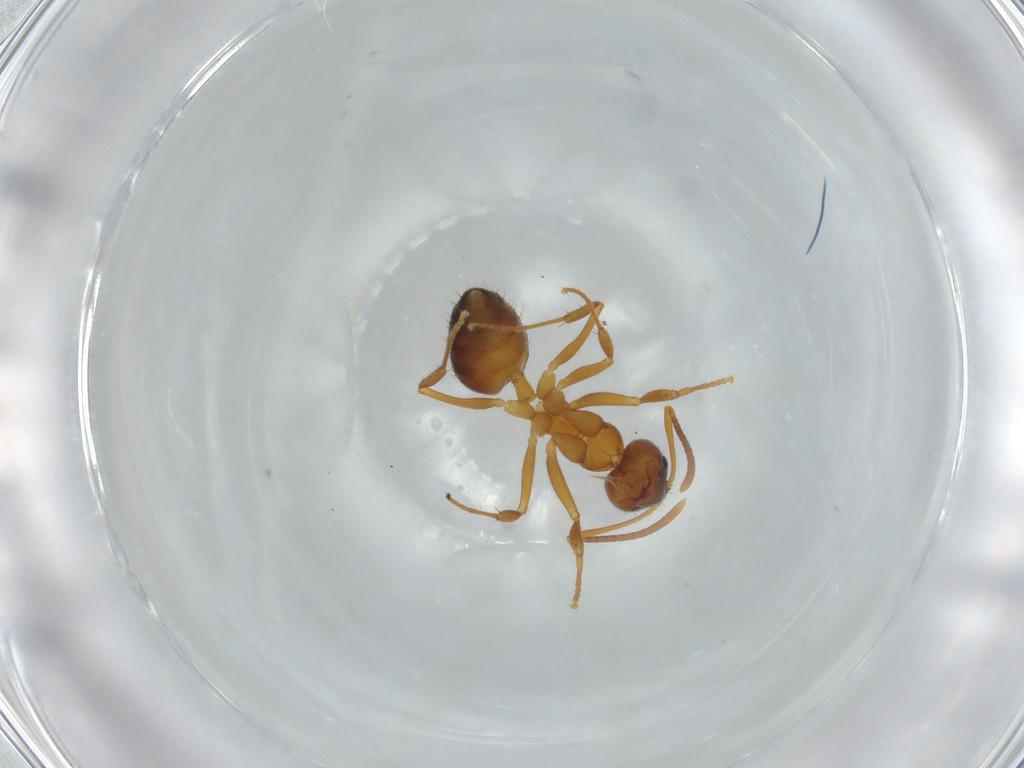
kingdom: Animalia
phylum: Arthropoda
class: Insecta
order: Hymenoptera
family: Formicidae
